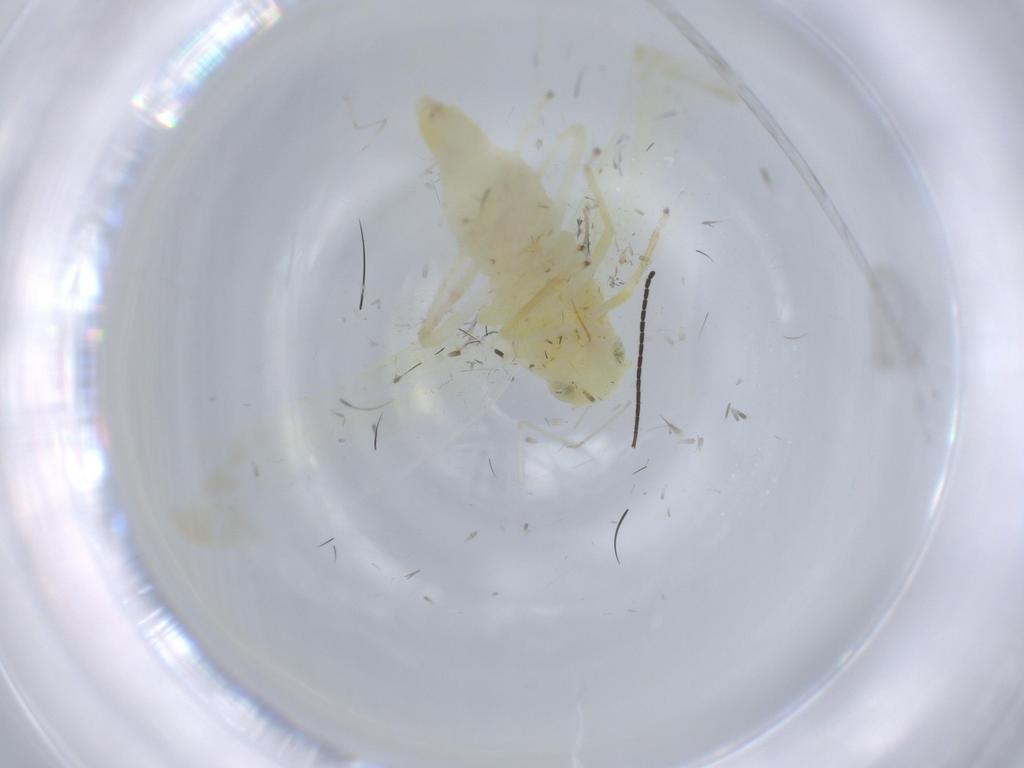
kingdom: Animalia
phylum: Arthropoda
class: Insecta
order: Hemiptera
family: Cicadellidae
